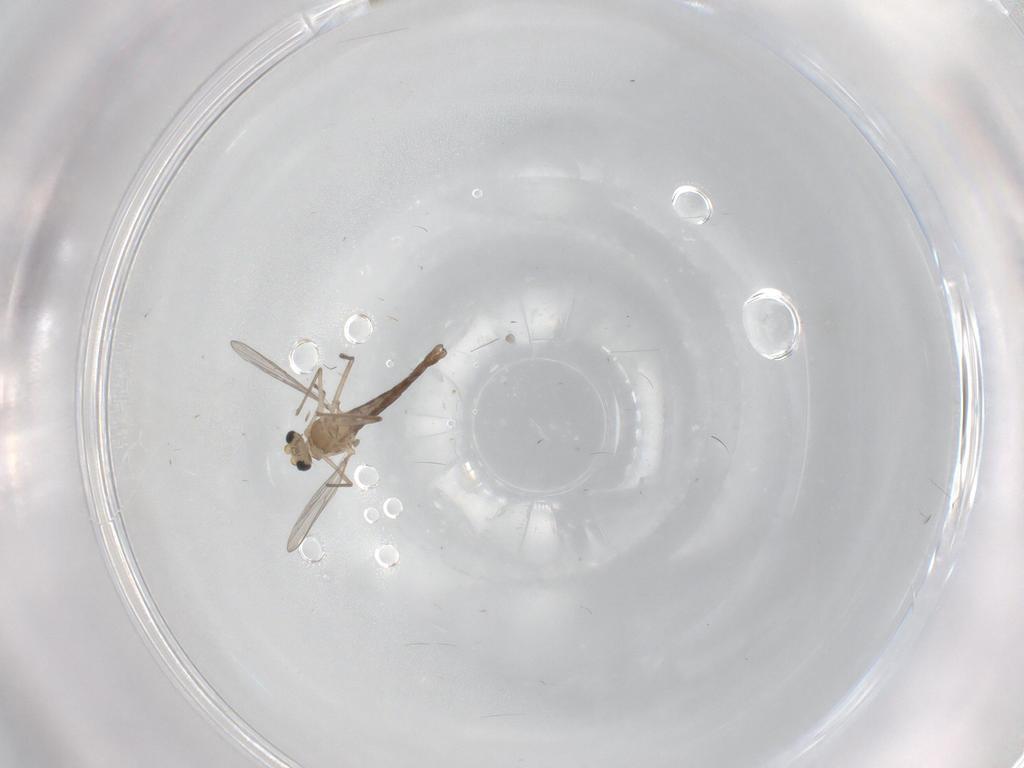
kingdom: Animalia
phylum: Arthropoda
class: Insecta
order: Diptera
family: Chironomidae
